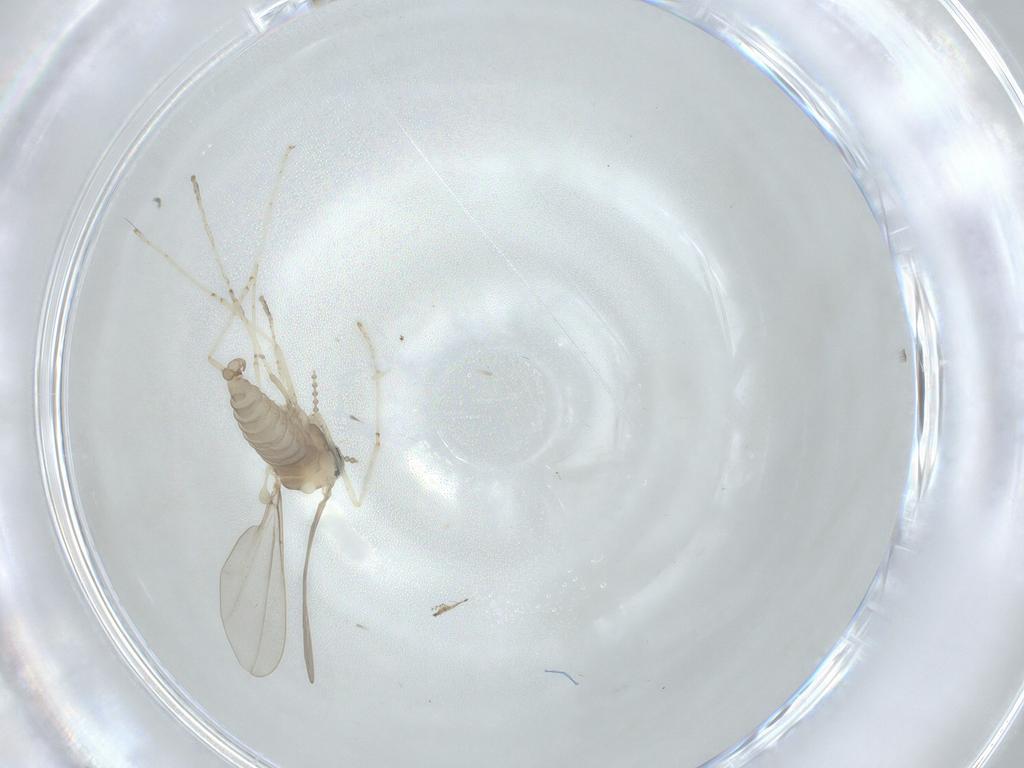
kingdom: Animalia
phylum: Arthropoda
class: Insecta
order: Diptera
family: Cecidomyiidae
